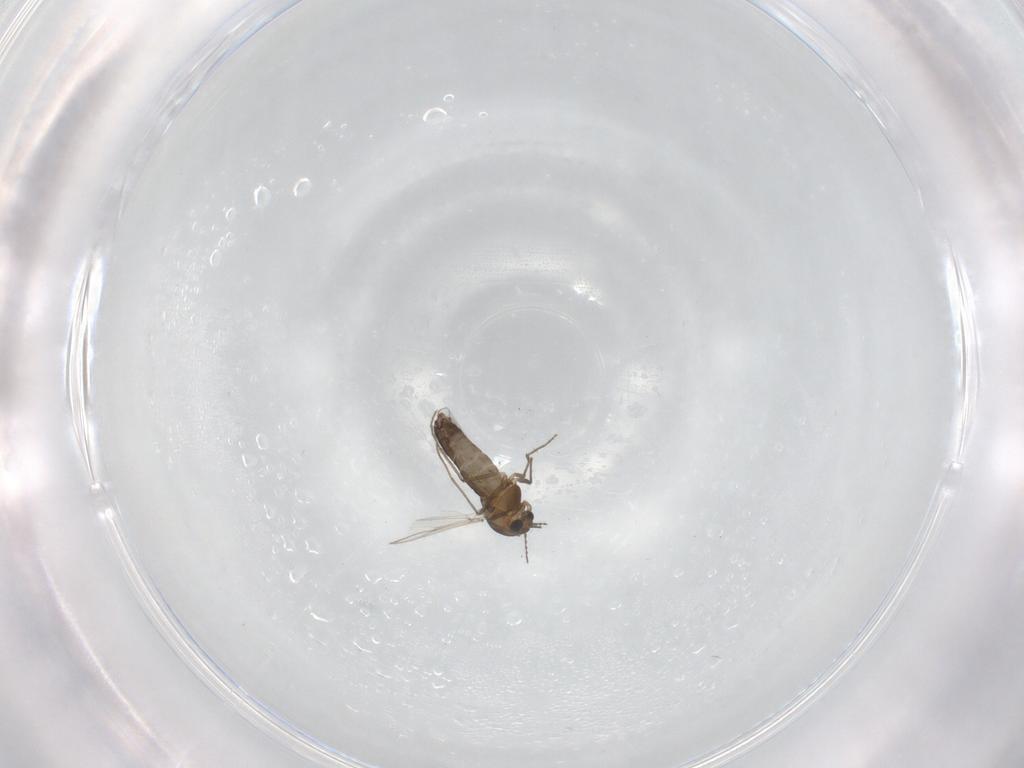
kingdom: Animalia
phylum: Arthropoda
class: Insecta
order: Diptera
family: Chironomidae
